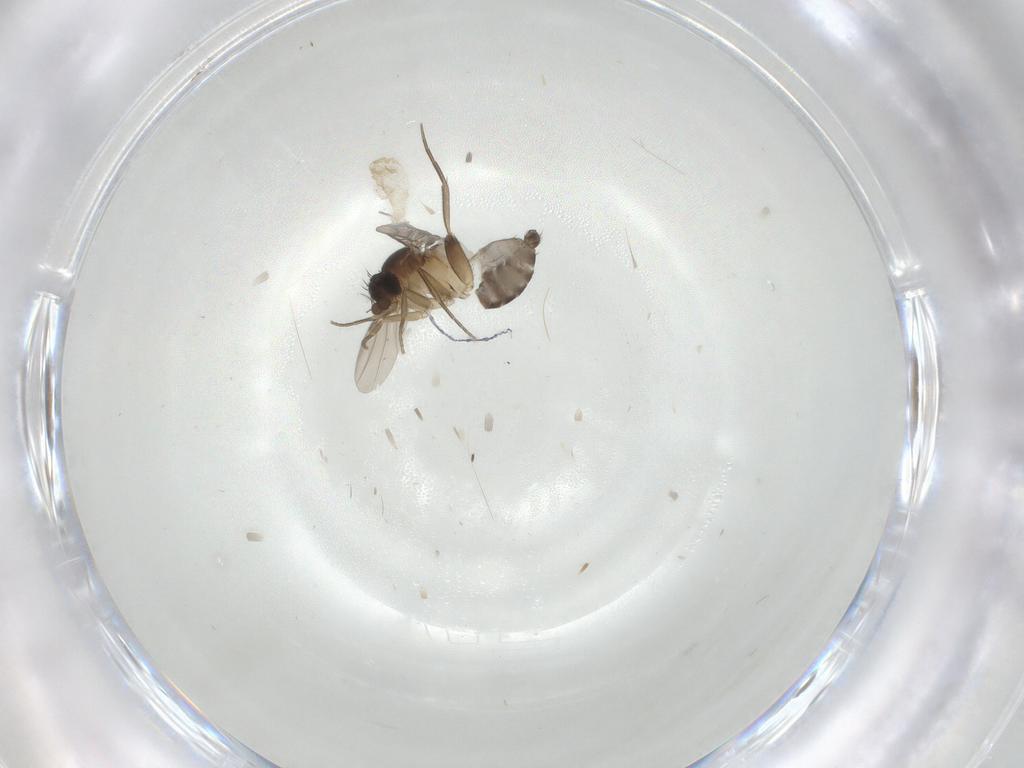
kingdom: Animalia
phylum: Arthropoda
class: Insecta
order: Diptera
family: Phoridae
